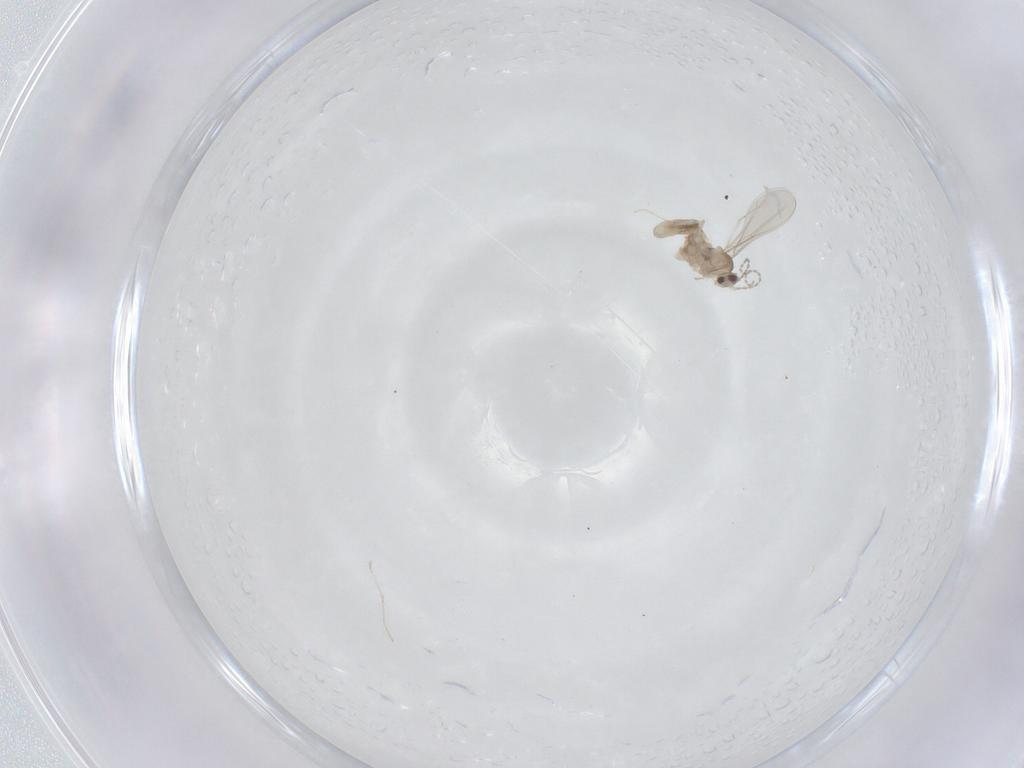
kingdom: Animalia
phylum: Arthropoda
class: Insecta
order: Diptera
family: Cecidomyiidae
